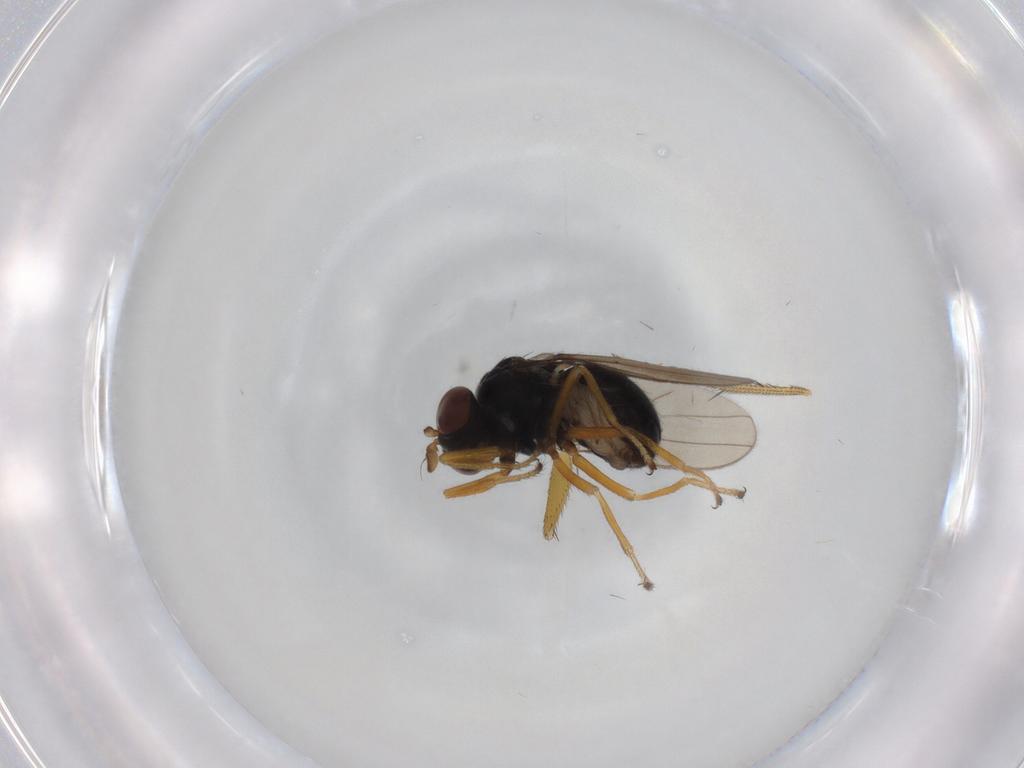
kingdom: Animalia
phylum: Arthropoda
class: Insecta
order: Diptera
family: Ephydridae
